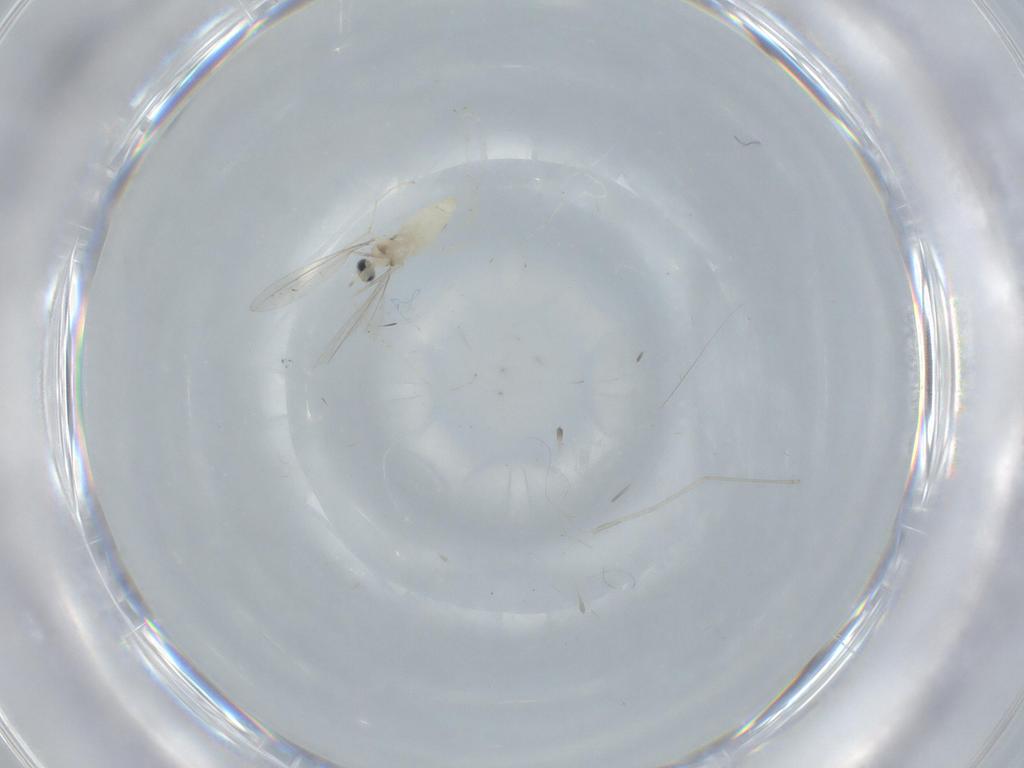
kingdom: Animalia
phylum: Arthropoda
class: Insecta
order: Diptera
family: Cecidomyiidae
